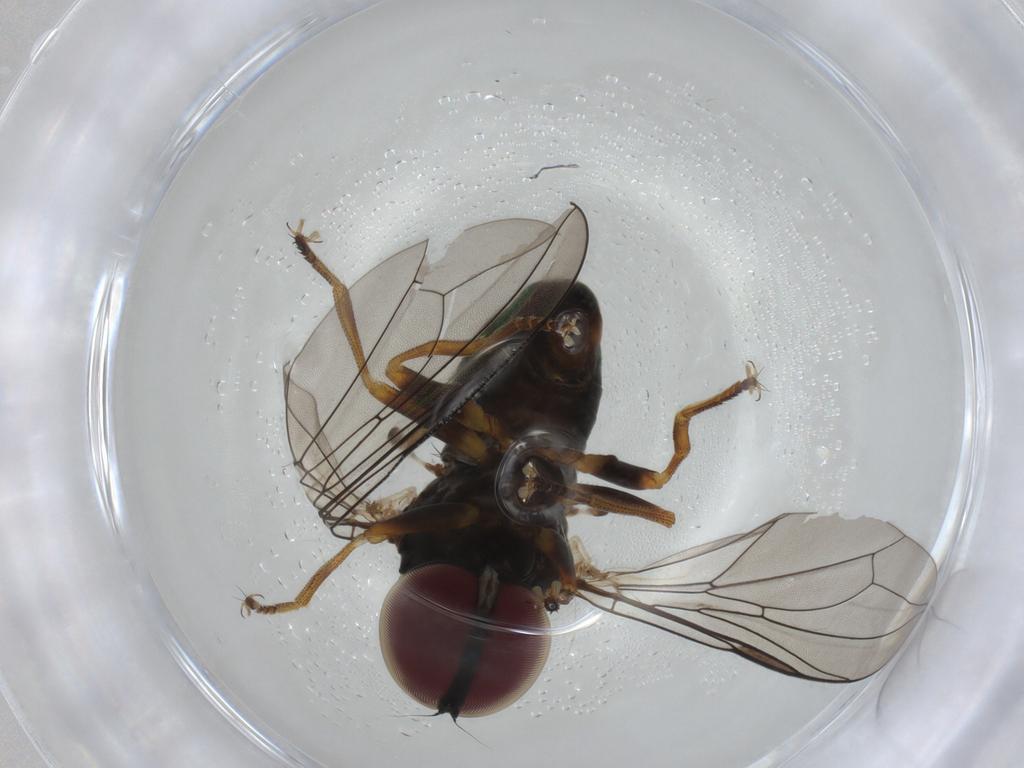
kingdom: Animalia
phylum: Arthropoda
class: Insecta
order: Diptera
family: Pipunculidae
